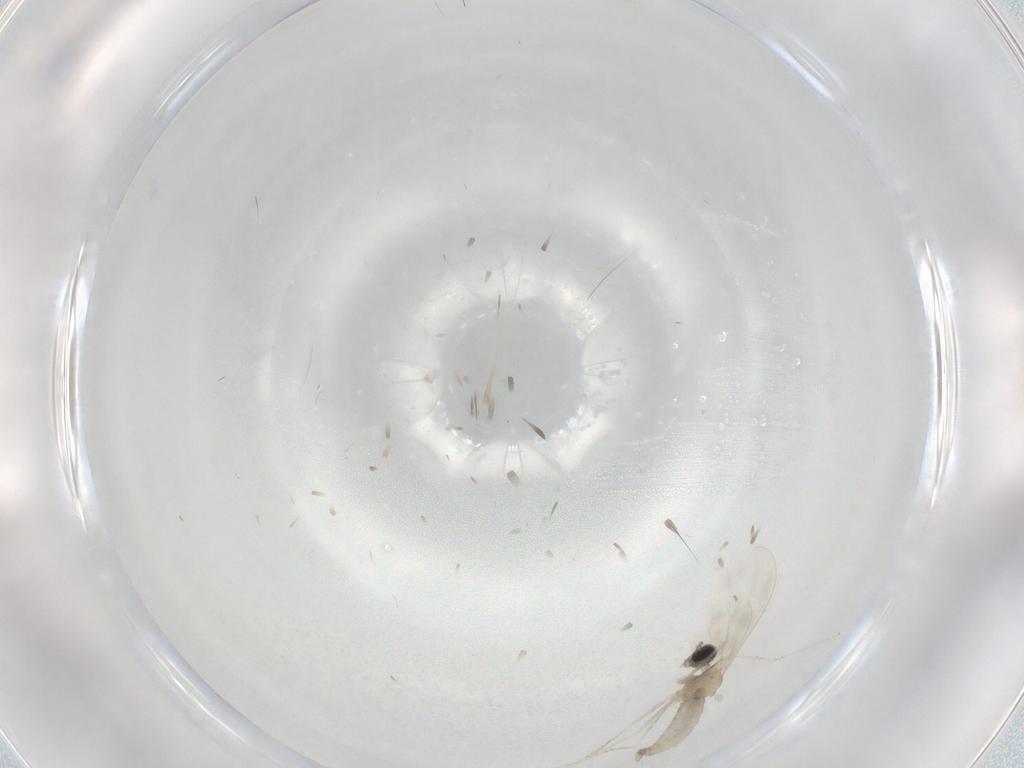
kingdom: Animalia
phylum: Arthropoda
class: Insecta
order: Diptera
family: Cecidomyiidae
